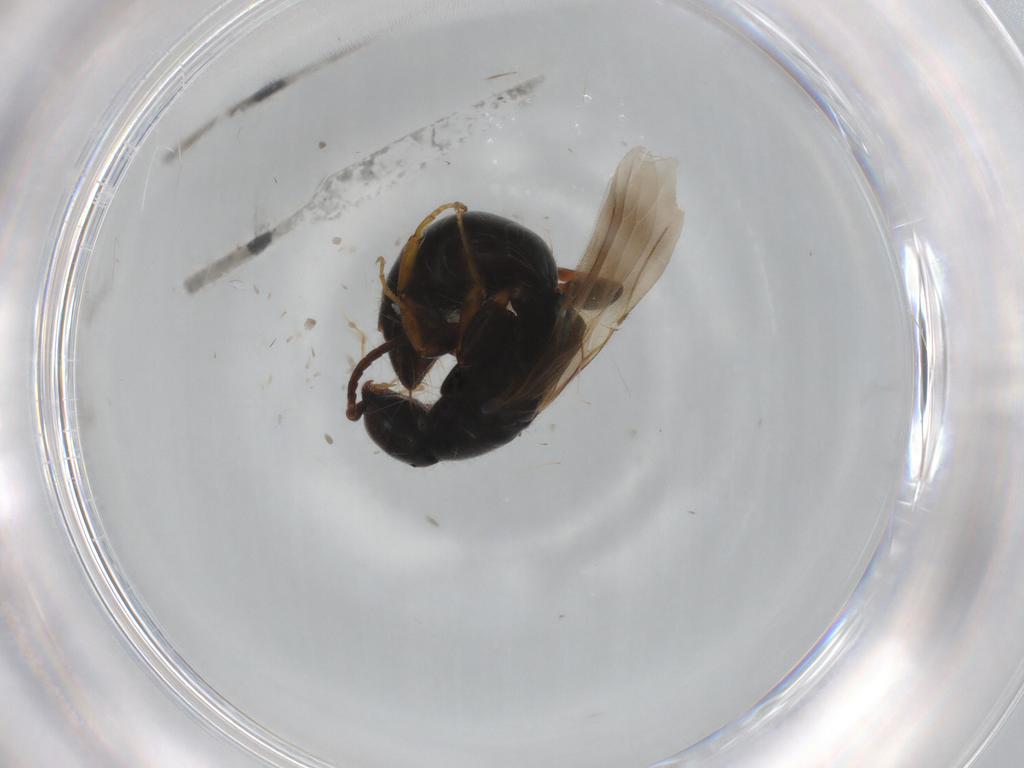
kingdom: Animalia
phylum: Arthropoda
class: Insecta
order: Hymenoptera
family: Bethylidae
